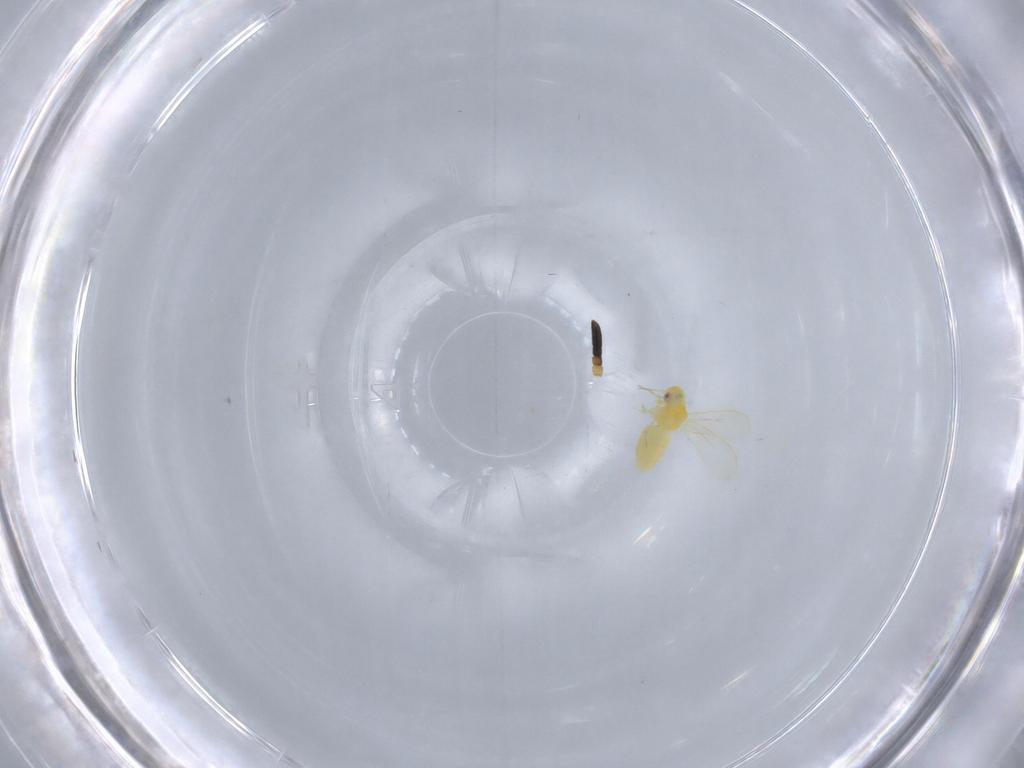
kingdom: Animalia
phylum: Arthropoda
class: Insecta
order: Hemiptera
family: Aleyrodidae
